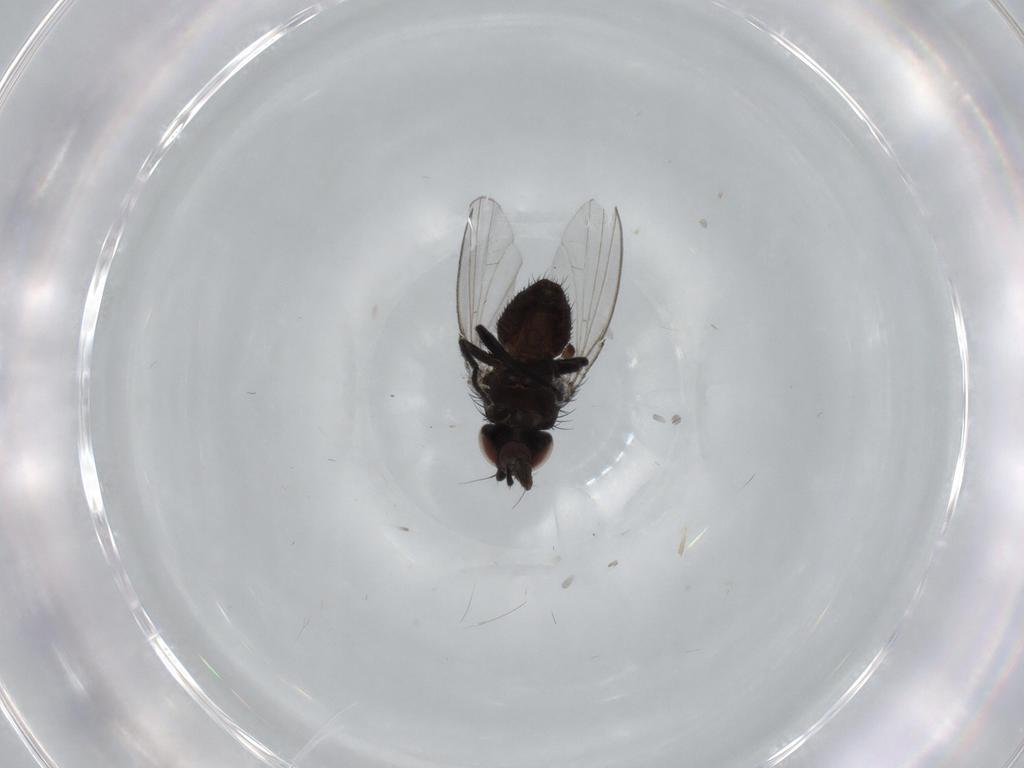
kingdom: Animalia
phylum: Arthropoda
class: Insecta
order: Diptera
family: Milichiidae
